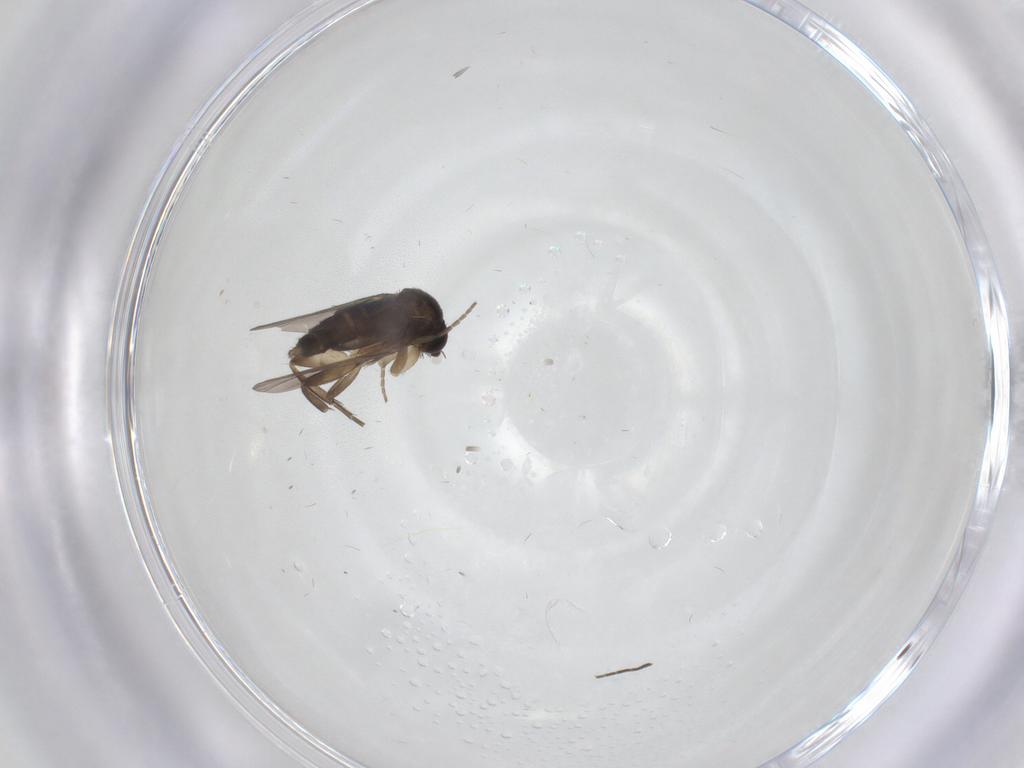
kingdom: Animalia
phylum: Arthropoda
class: Insecta
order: Diptera
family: Phoridae
